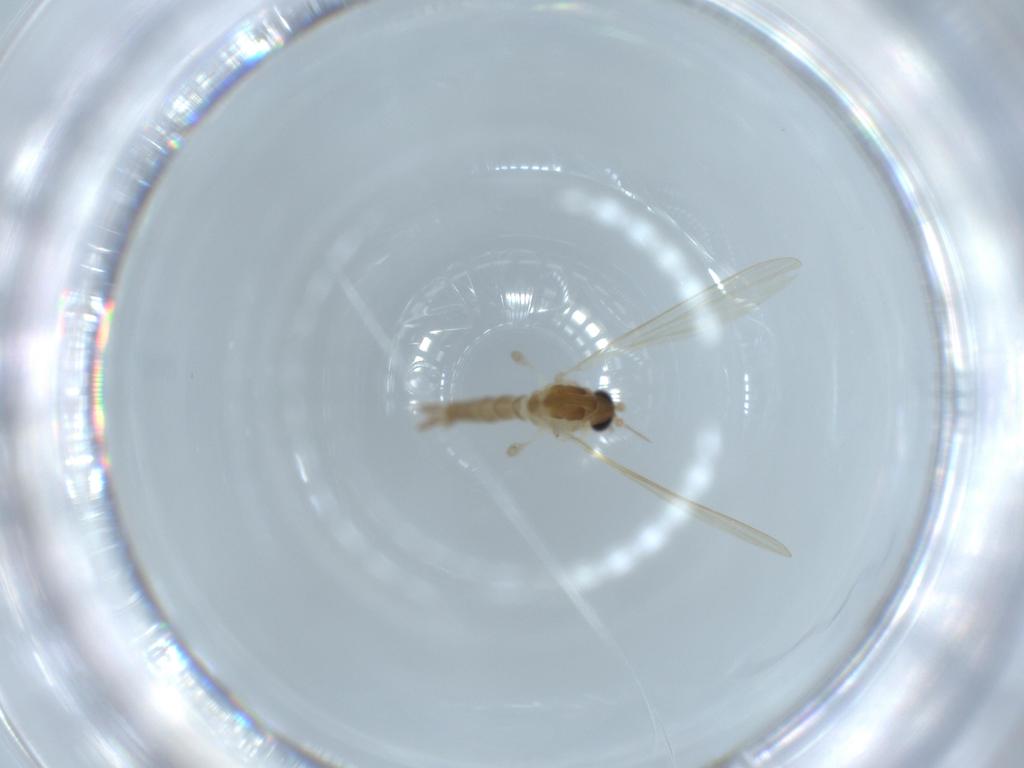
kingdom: Animalia
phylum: Arthropoda
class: Insecta
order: Diptera
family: Psychodidae
